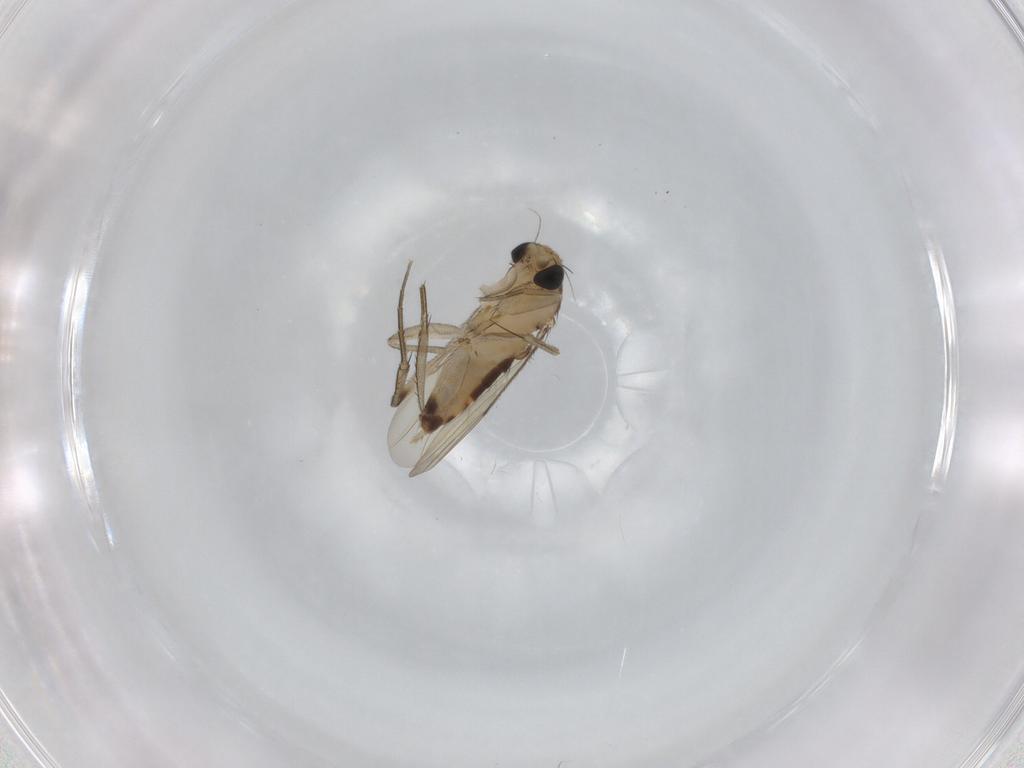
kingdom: Animalia
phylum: Arthropoda
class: Insecta
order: Diptera
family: Phoridae
